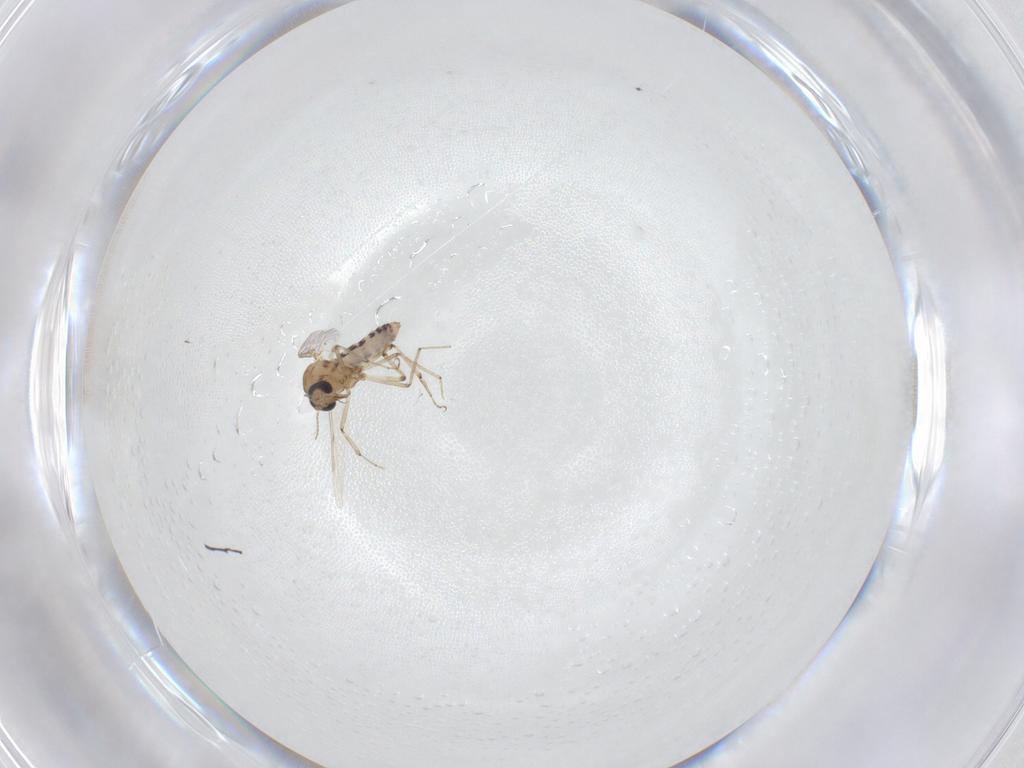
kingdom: Animalia
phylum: Arthropoda
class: Insecta
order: Diptera
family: Ceratopogonidae
